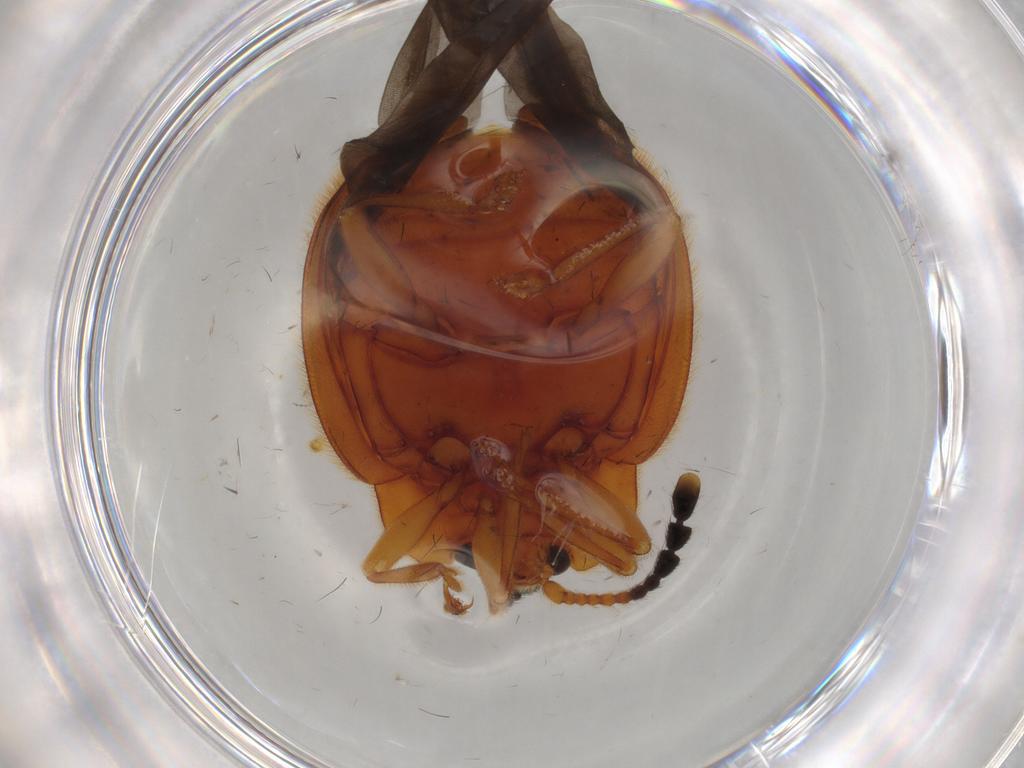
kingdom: Animalia
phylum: Arthropoda
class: Insecta
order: Coleoptera
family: Endomychidae
